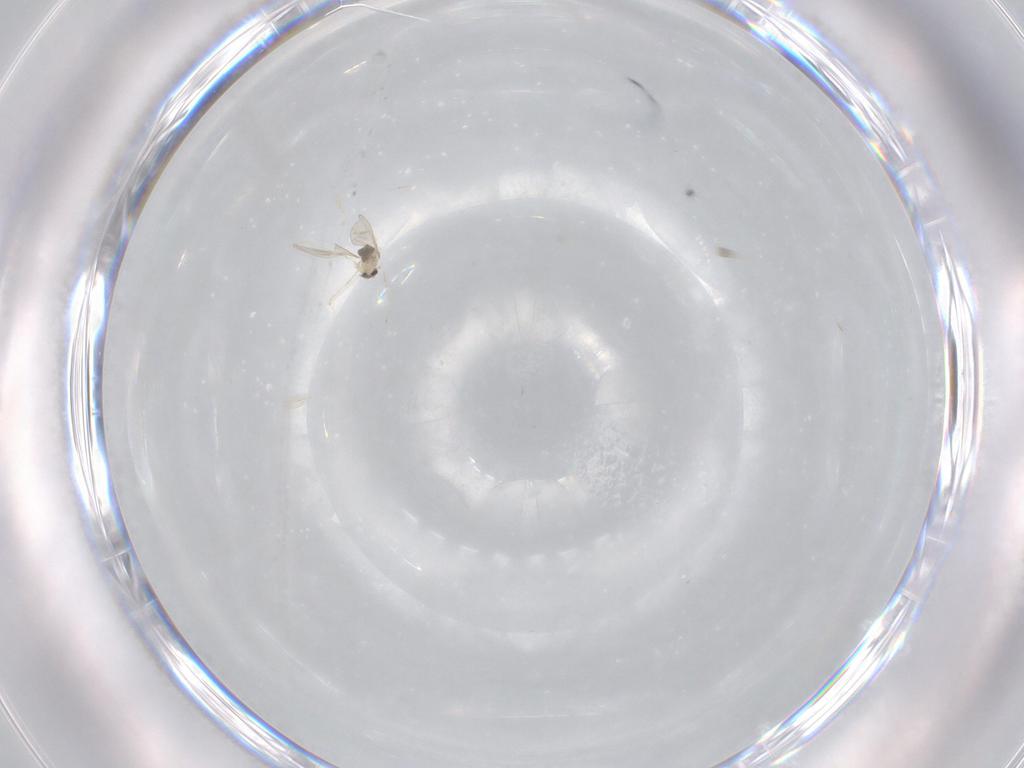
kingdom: Animalia
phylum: Arthropoda
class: Insecta
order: Diptera
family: Cecidomyiidae
